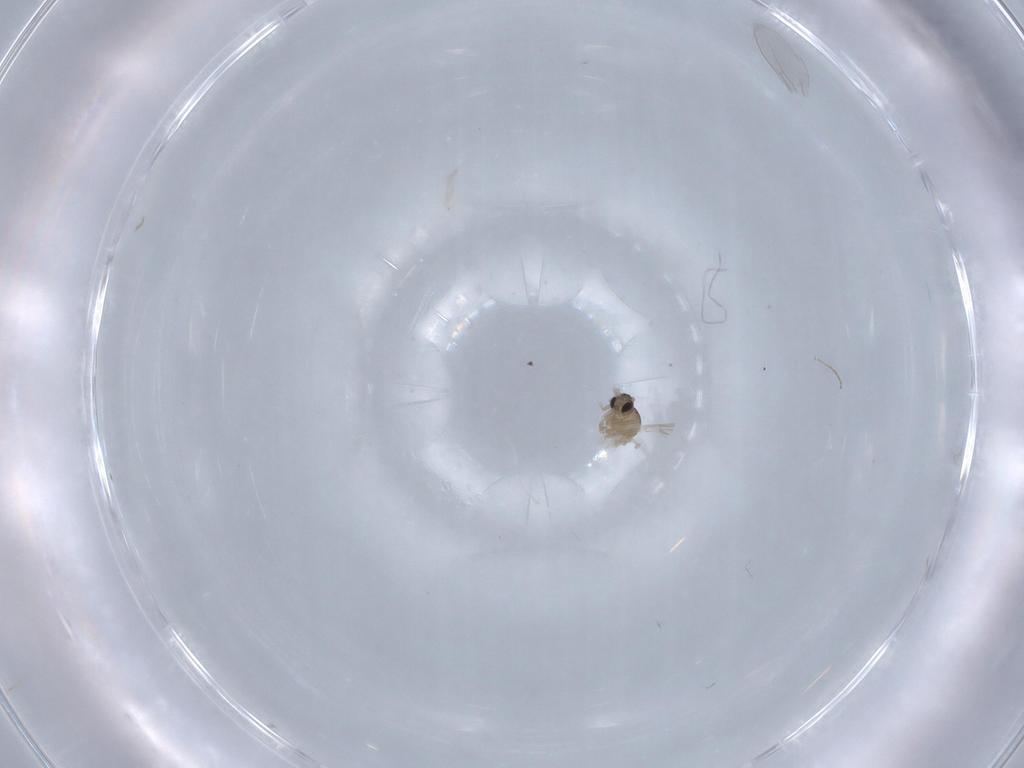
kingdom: Animalia
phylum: Arthropoda
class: Insecta
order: Diptera
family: Cecidomyiidae
